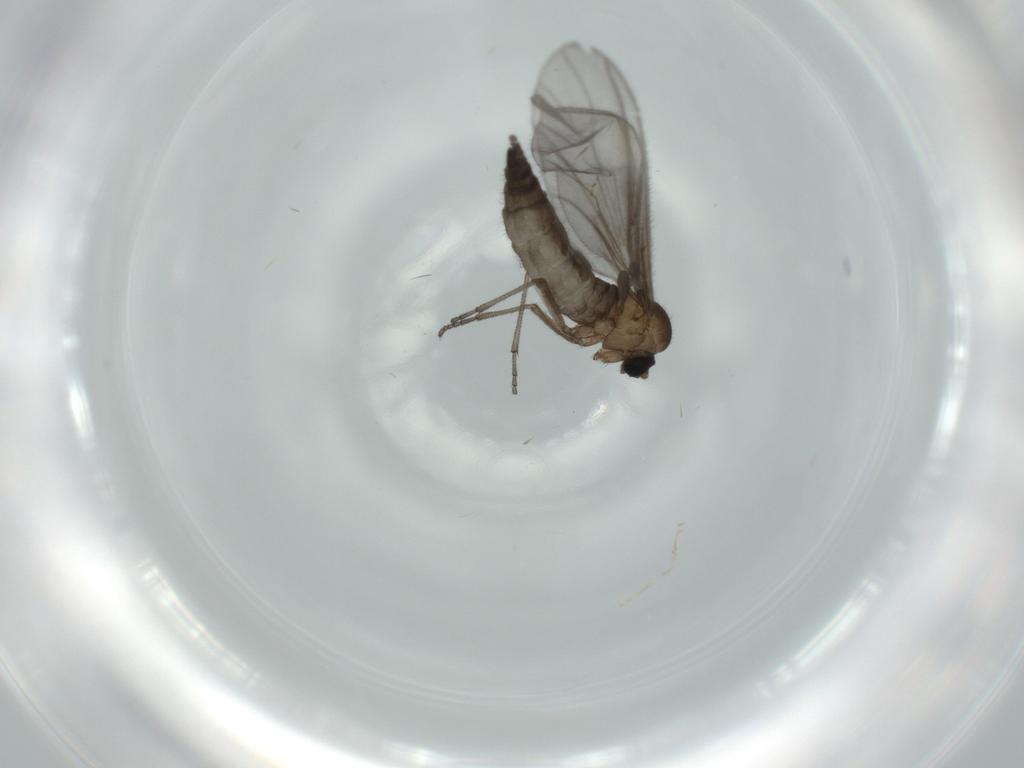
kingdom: Animalia
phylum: Arthropoda
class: Insecta
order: Diptera
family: Sciaridae
